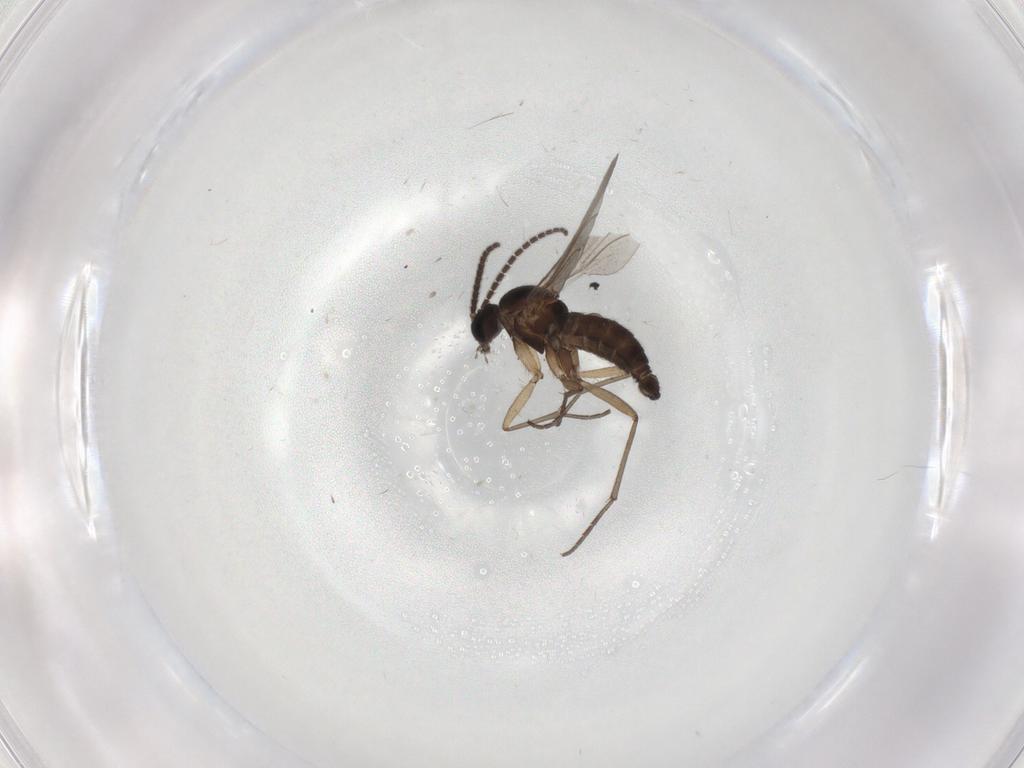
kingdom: Animalia
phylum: Arthropoda
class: Insecta
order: Diptera
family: Sciaridae
